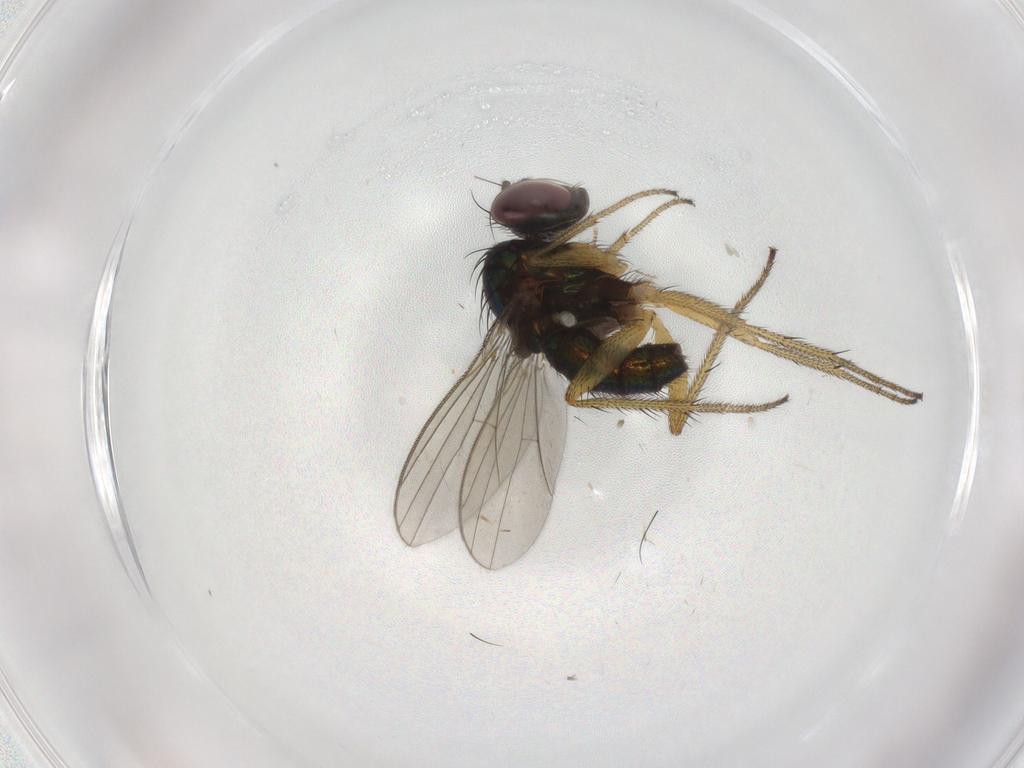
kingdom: Animalia
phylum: Arthropoda
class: Insecta
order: Diptera
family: Dolichopodidae
